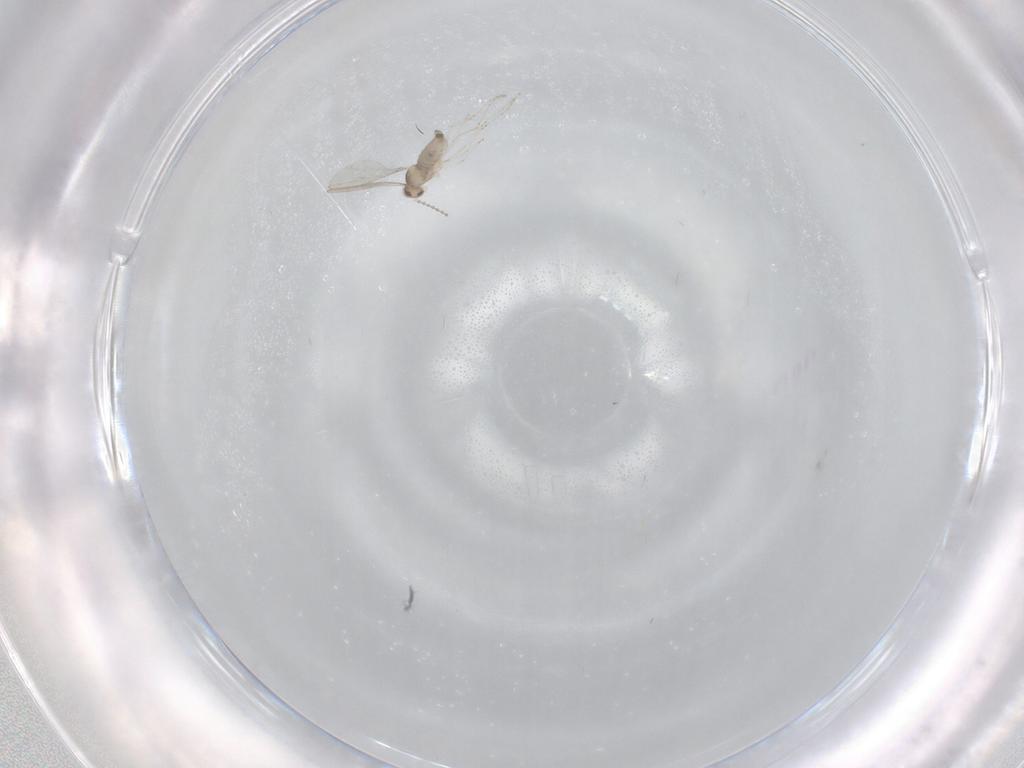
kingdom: Animalia
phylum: Arthropoda
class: Insecta
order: Diptera
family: Cecidomyiidae
